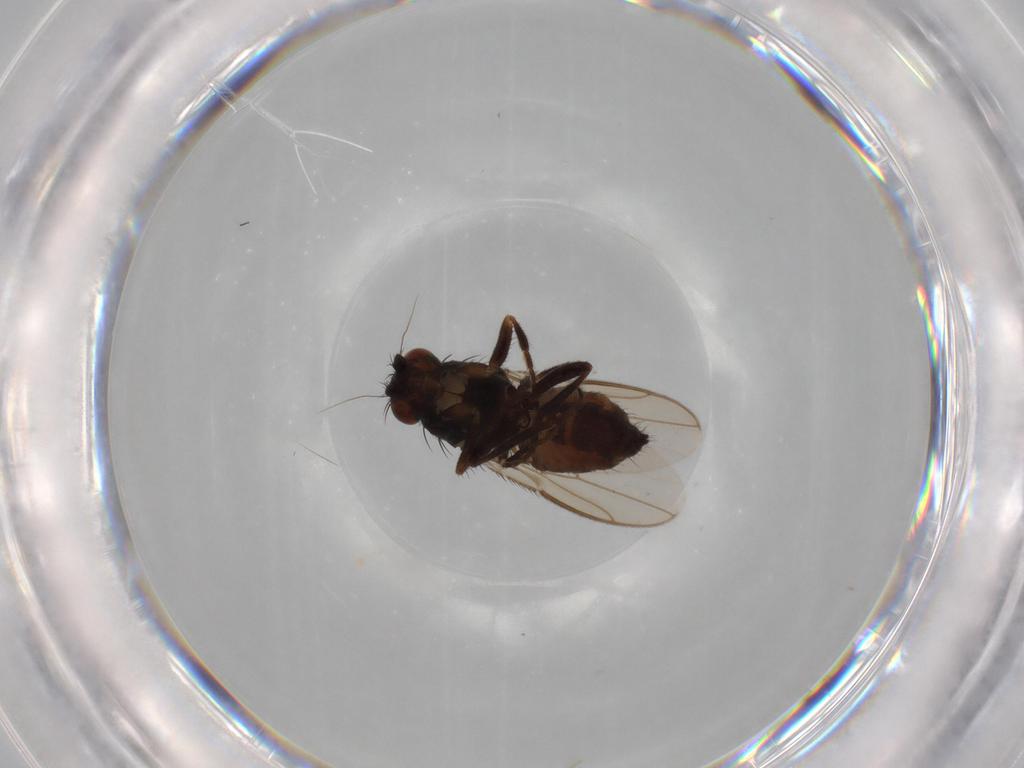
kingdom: Animalia
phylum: Arthropoda
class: Insecta
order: Diptera
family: Sphaeroceridae
